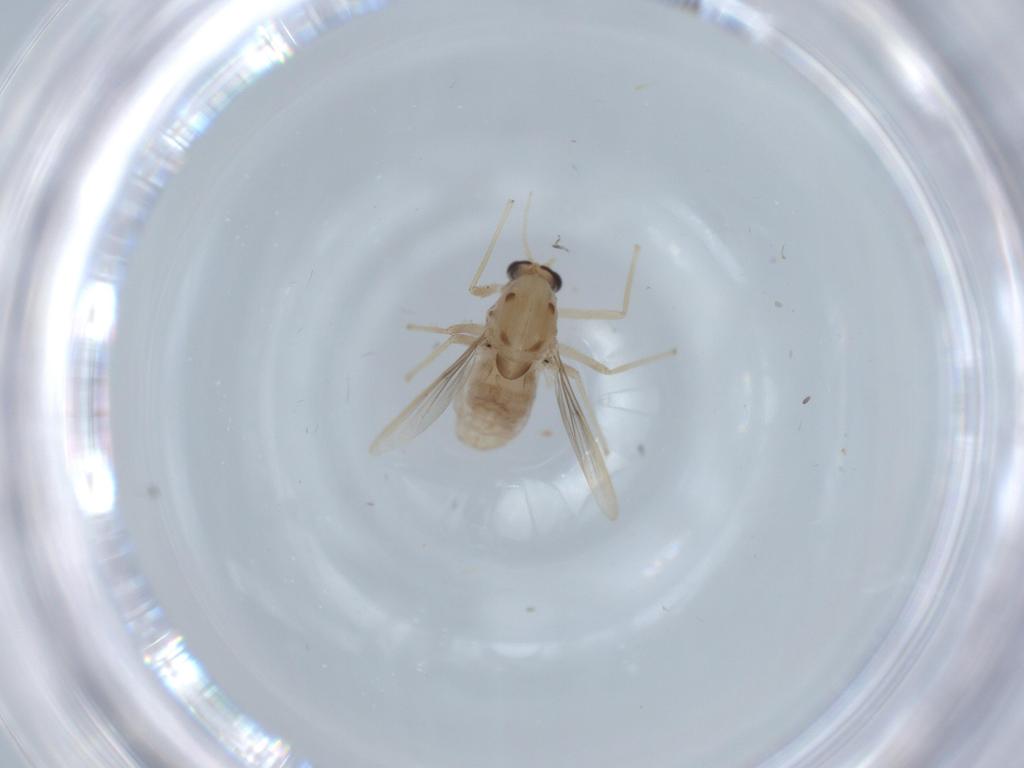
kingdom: Animalia
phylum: Arthropoda
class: Insecta
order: Diptera
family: Chironomidae
